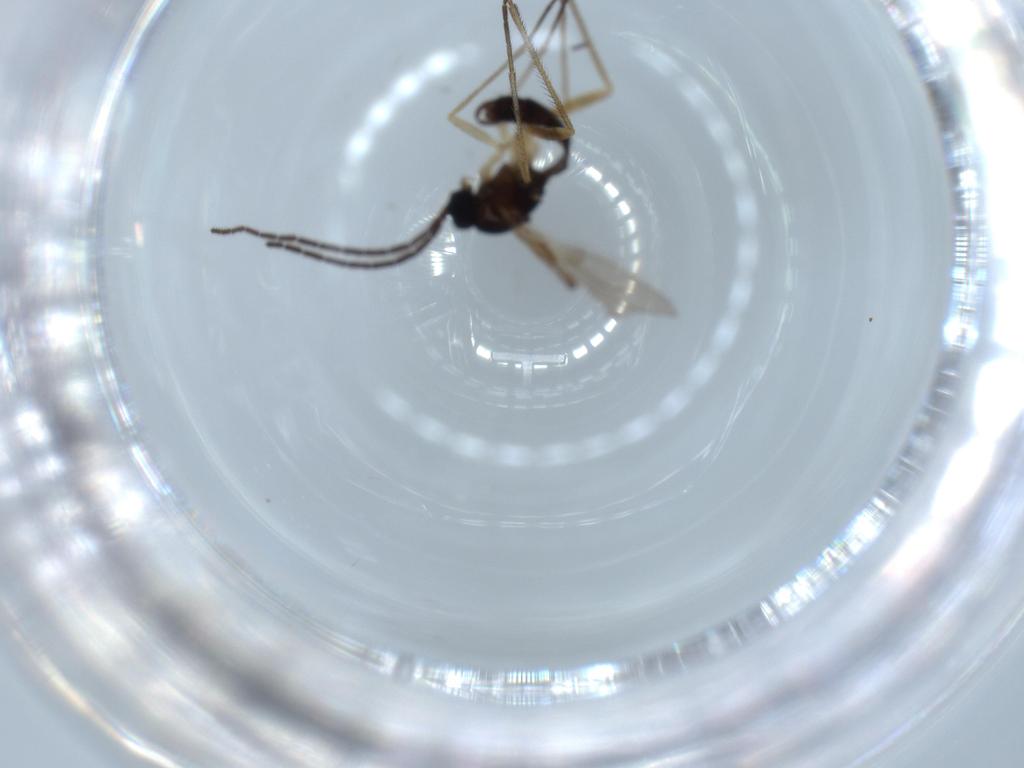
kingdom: Animalia
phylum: Arthropoda
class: Insecta
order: Diptera
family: Sciaridae
